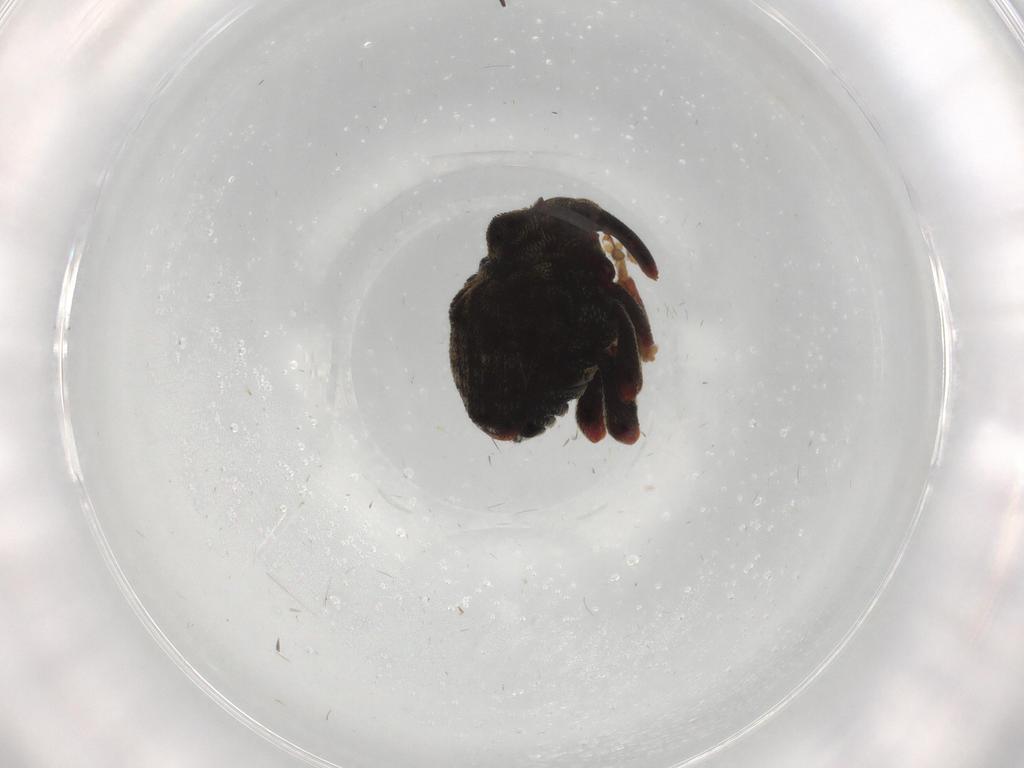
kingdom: Animalia
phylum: Arthropoda
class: Insecta
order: Coleoptera
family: Curculionidae
